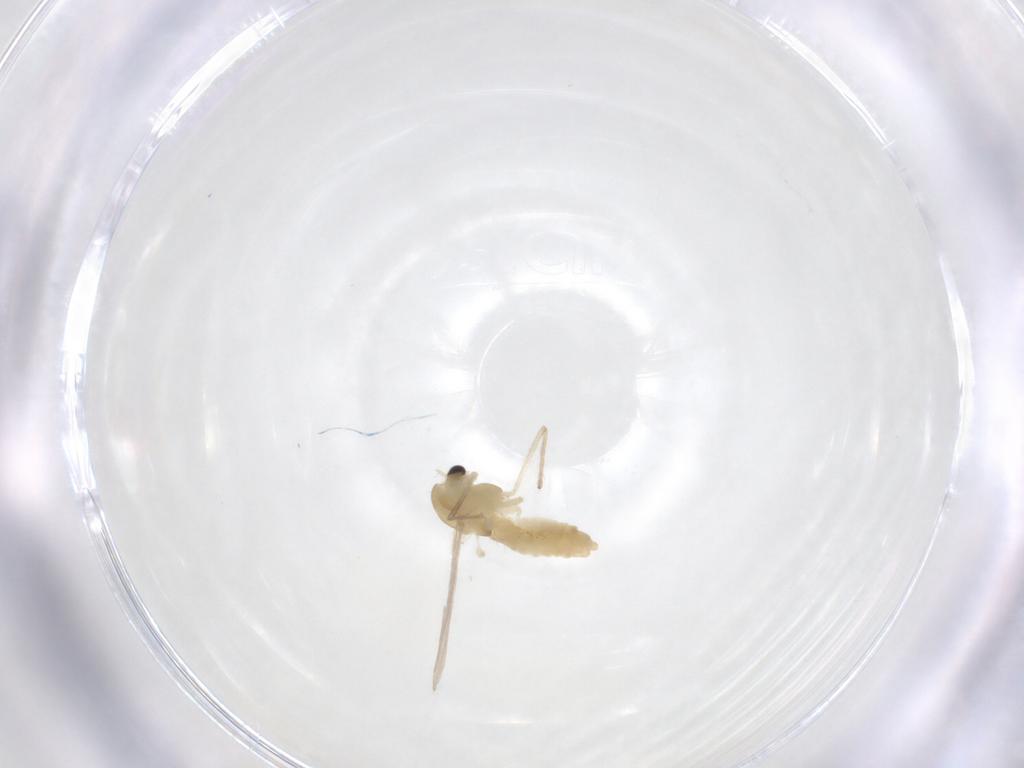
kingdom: Animalia
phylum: Arthropoda
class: Insecta
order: Diptera
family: Chironomidae
